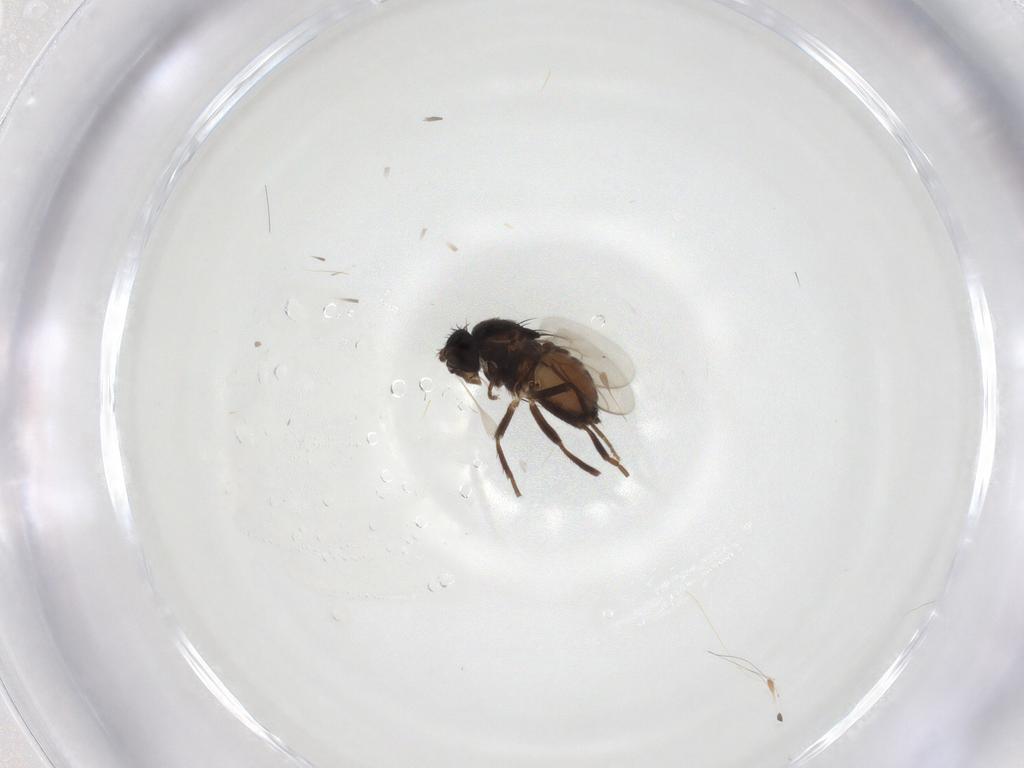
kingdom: Animalia
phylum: Arthropoda
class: Insecta
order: Diptera
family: Sphaeroceridae
